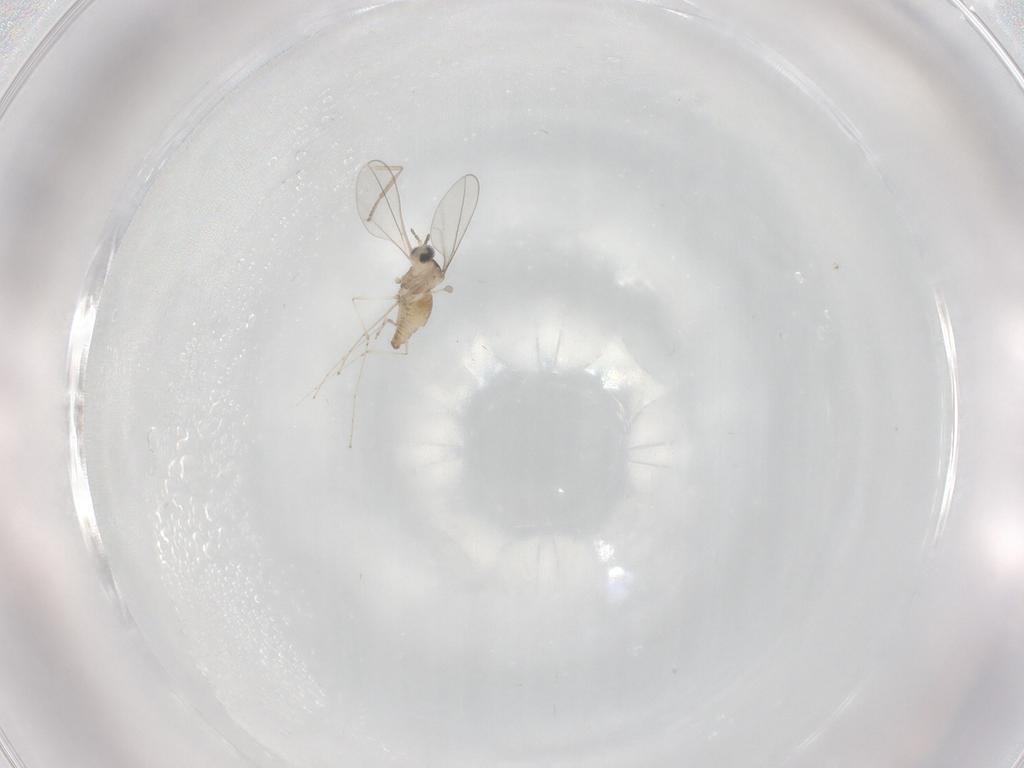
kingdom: Animalia
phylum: Arthropoda
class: Insecta
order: Diptera
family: Psychodidae
